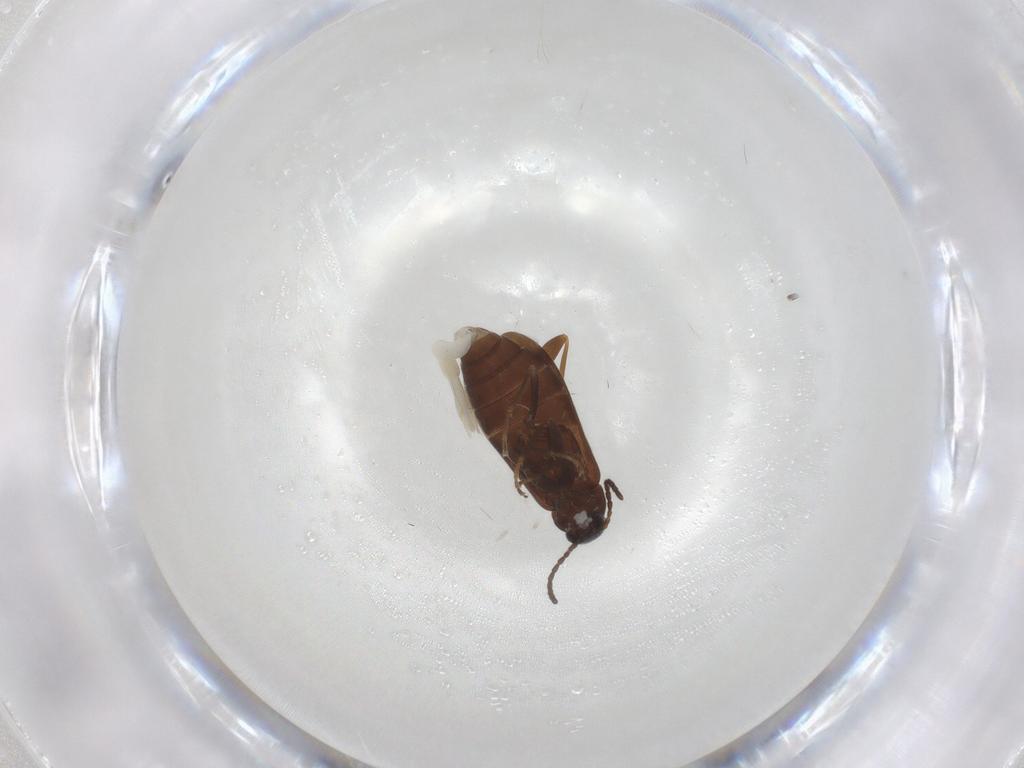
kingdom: Animalia
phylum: Arthropoda
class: Insecta
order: Coleoptera
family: Scraptiidae
